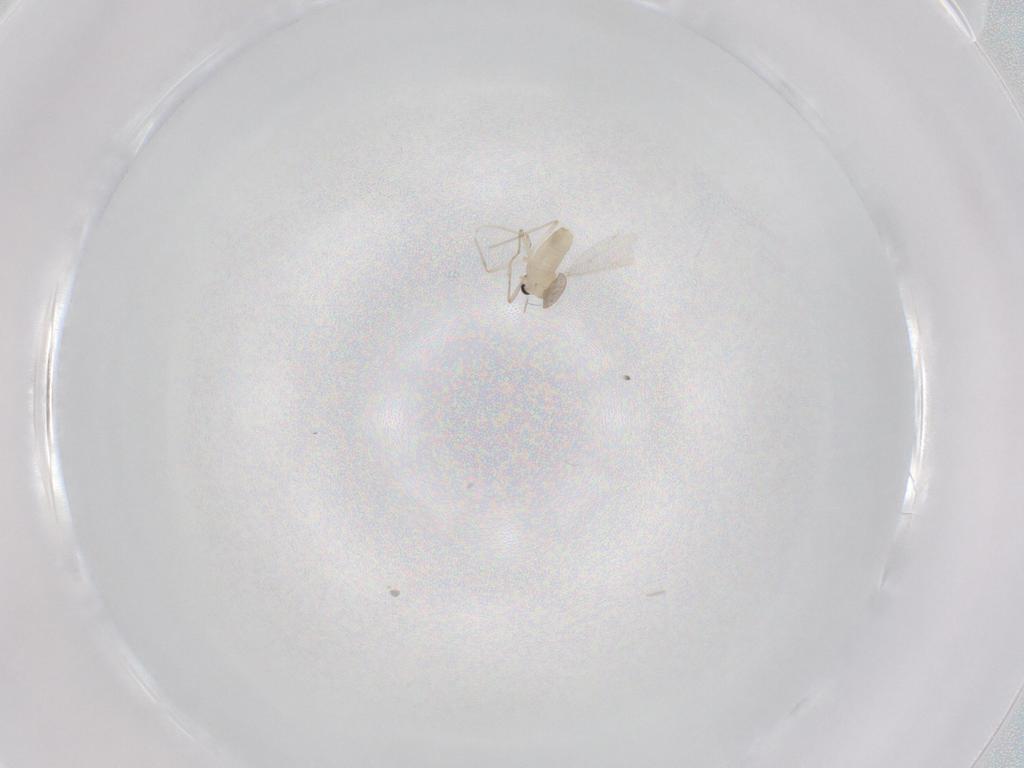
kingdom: Animalia
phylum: Arthropoda
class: Insecta
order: Diptera
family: Chironomidae
